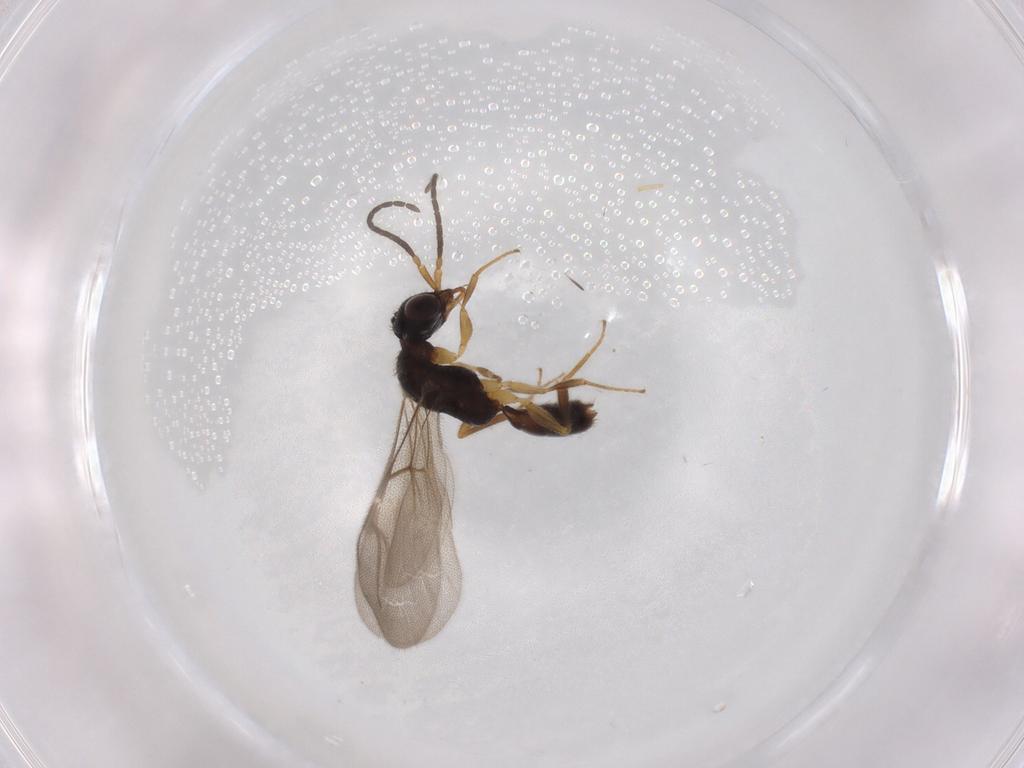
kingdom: Animalia
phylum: Arthropoda
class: Insecta
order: Hymenoptera
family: Bethylidae
